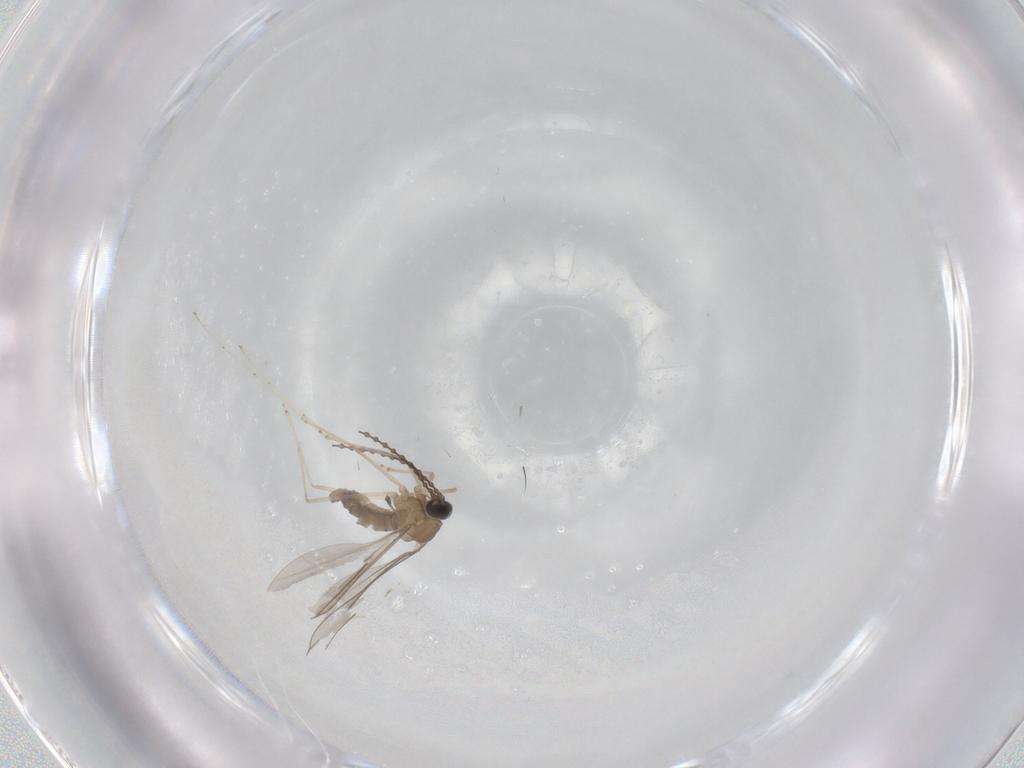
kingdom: Animalia
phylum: Arthropoda
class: Insecta
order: Diptera
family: Cecidomyiidae
